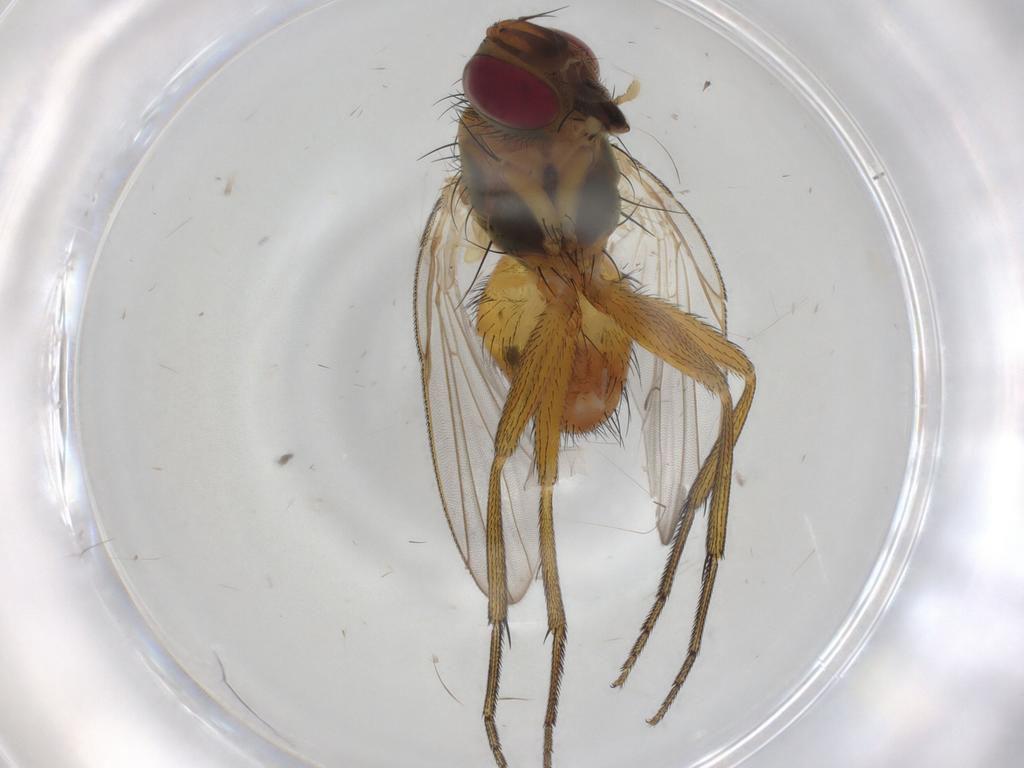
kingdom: Animalia
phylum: Arthropoda
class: Insecta
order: Diptera
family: Muscidae
